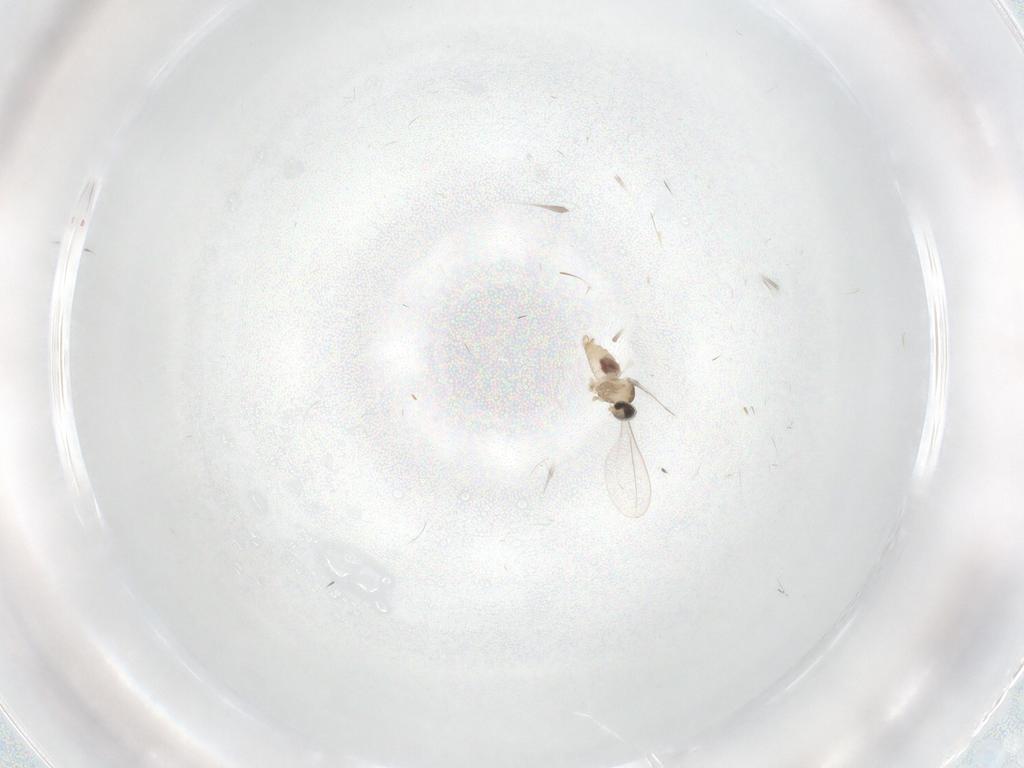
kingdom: Animalia
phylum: Arthropoda
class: Insecta
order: Diptera
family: Cecidomyiidae
